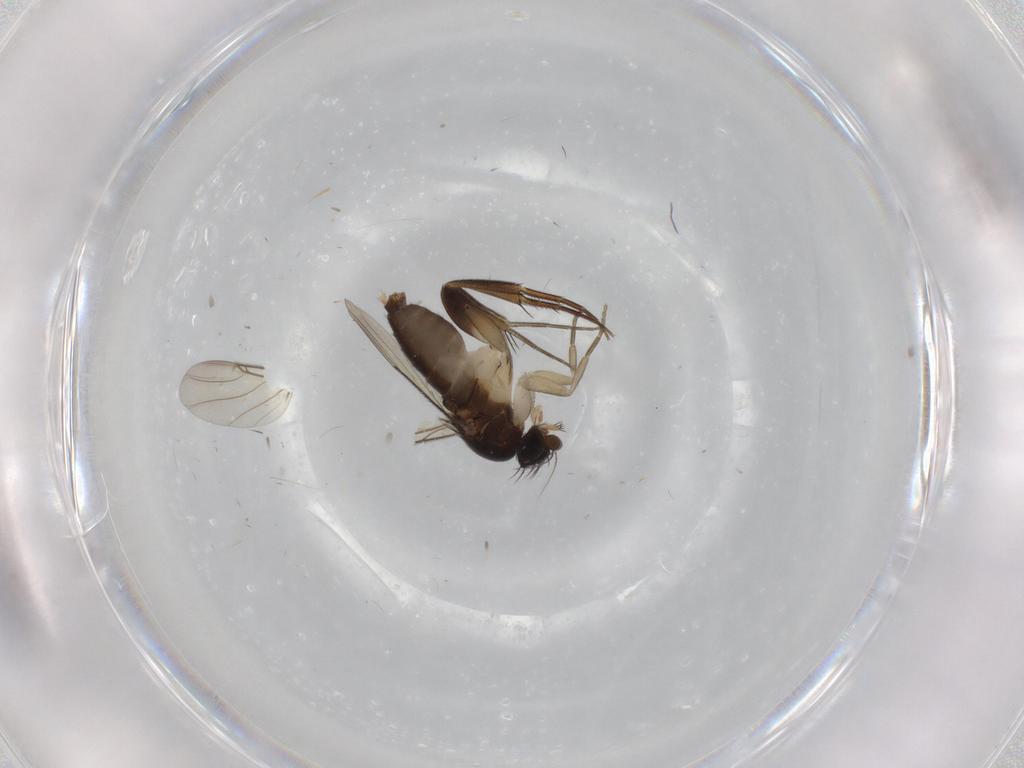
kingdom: Animalia
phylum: Arthropoda
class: Insecta
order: Diptera
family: Phoridae
